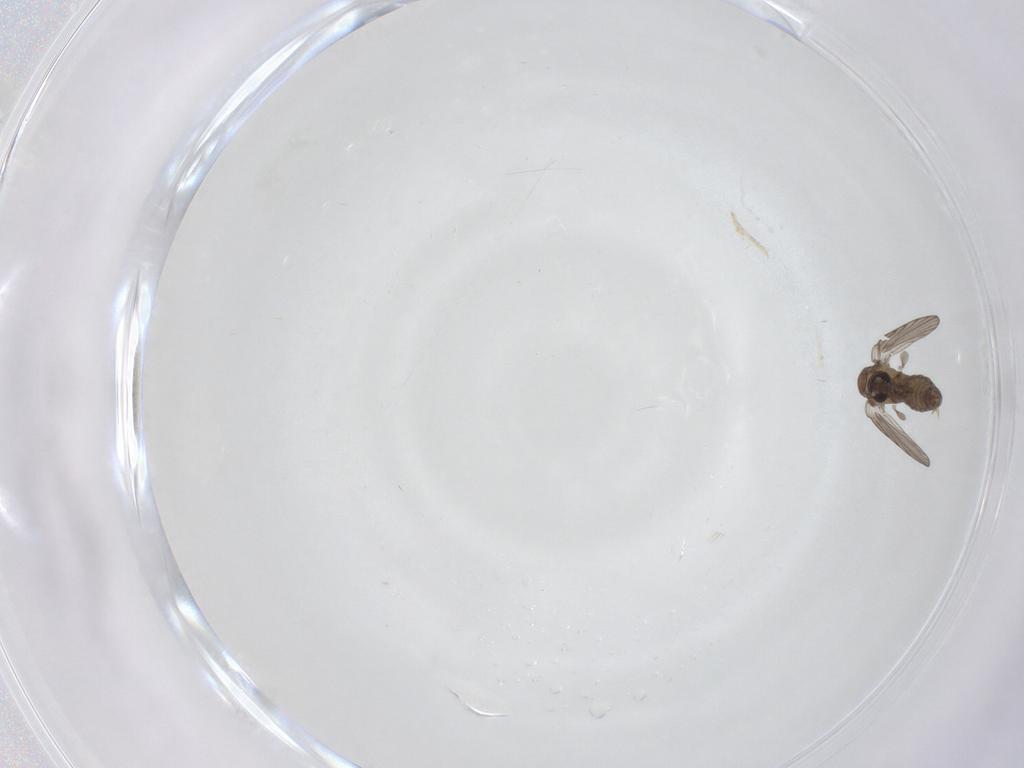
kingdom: Animalia
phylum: Arthropoda
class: Insecta
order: Diptera
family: Psychodidae
